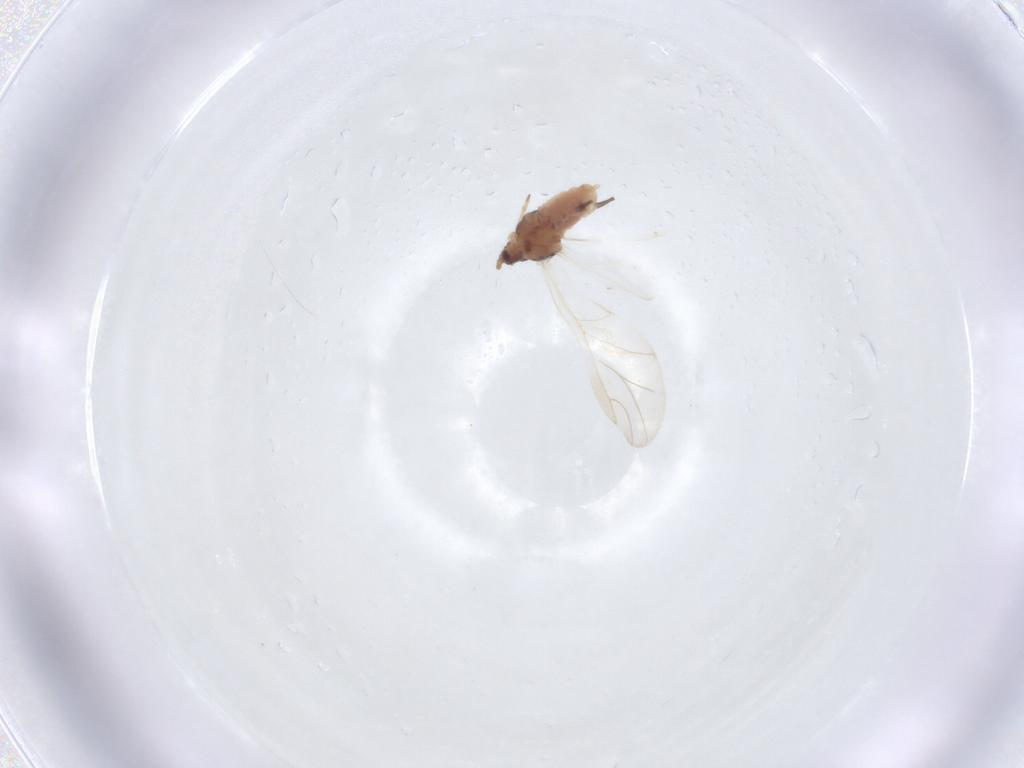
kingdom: Animalia
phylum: Arthropoda
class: Insecta
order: Hemiptera
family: Aphididae
